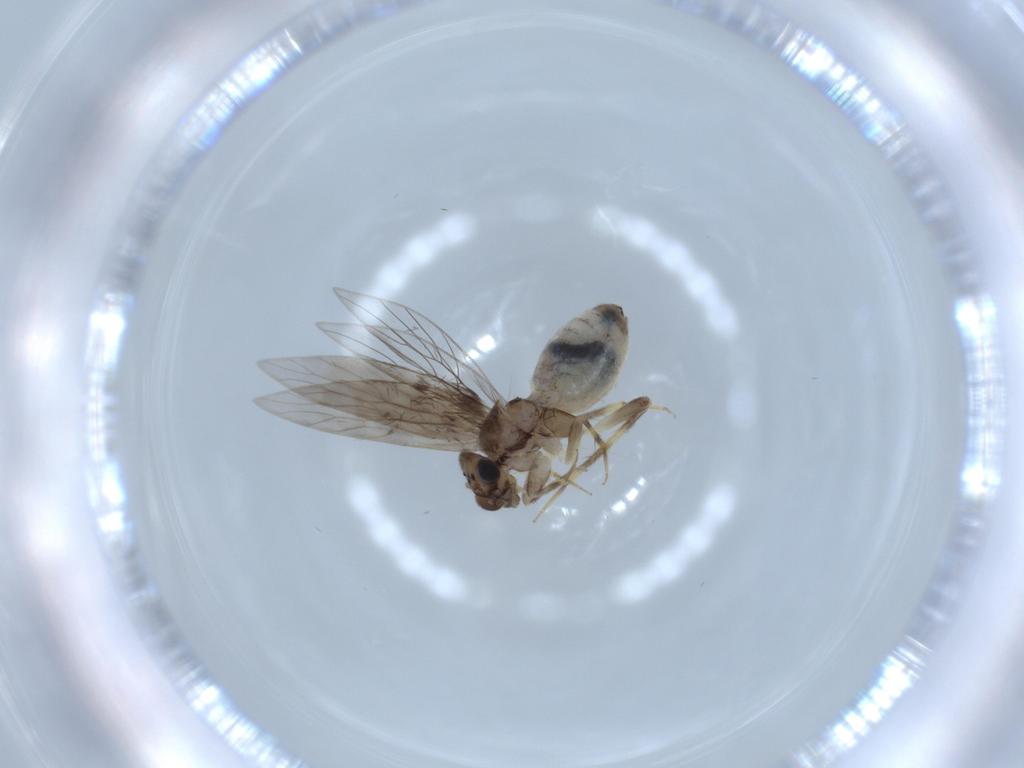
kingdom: Animalia
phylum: Arthropoda
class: Insecta
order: Psocodea
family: Lepidopsocidae
